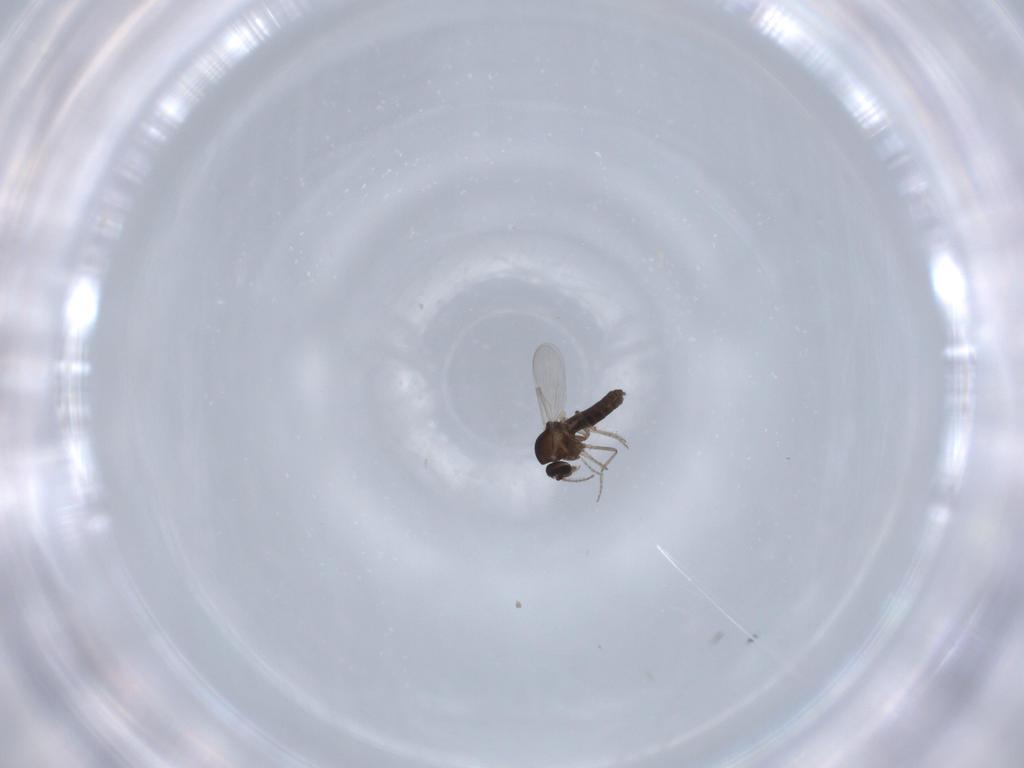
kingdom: Animalia
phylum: Arthropoda
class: Insecta
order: Diptera
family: Ceratopogonidae
